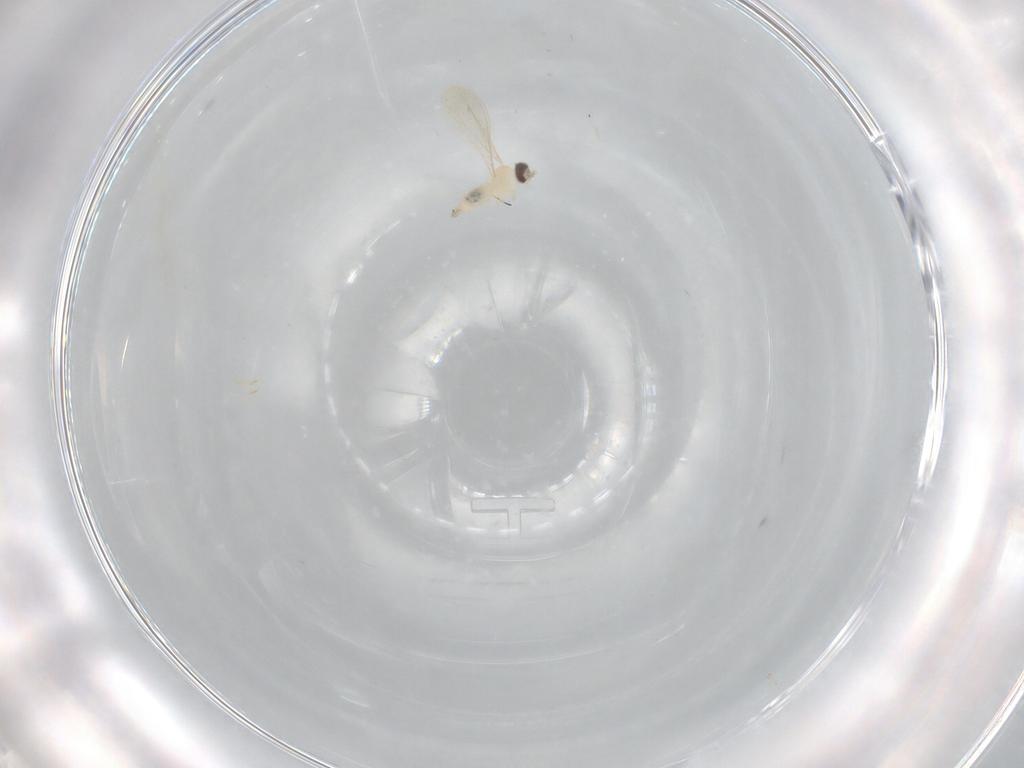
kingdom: Animalia
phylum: Arthropoda
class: Insecta
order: Diptera
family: Cecidomyiidae
